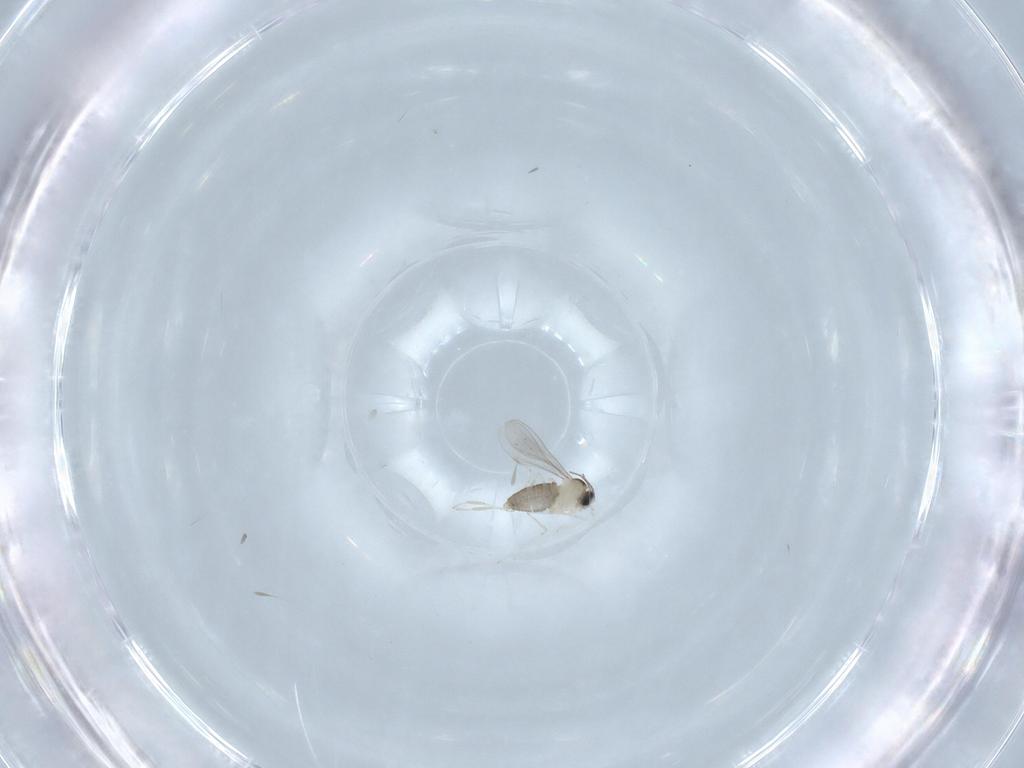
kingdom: Animalia
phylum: Arthropoda
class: Insecta
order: Diptera
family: Cecidomyiidae
